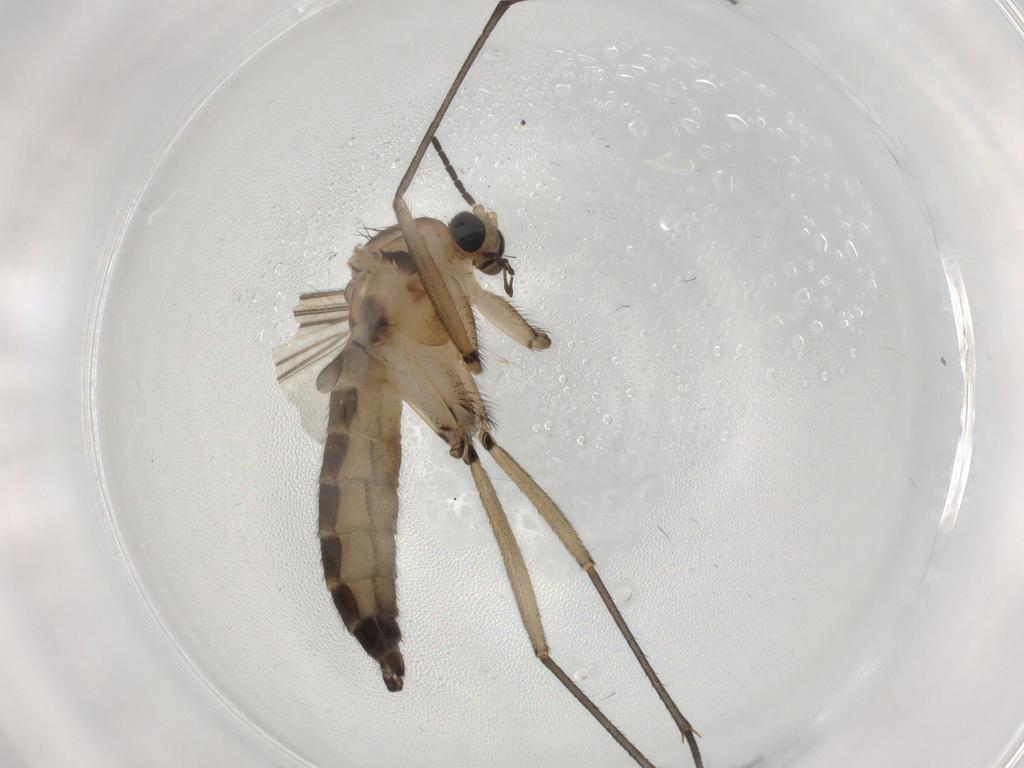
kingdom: Animalia
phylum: Arthropoda
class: Insecta
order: Diptera
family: Sciaridae
